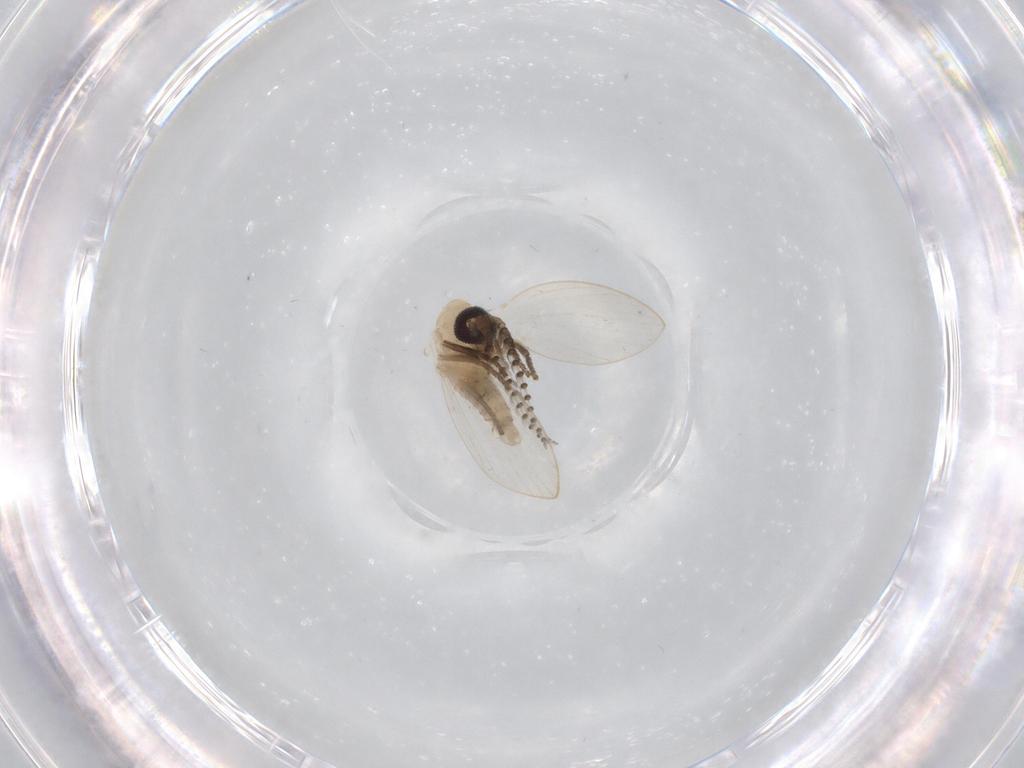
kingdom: Animalia
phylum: Arthropoda
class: Insecta
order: Diptera
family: Psychodidae
